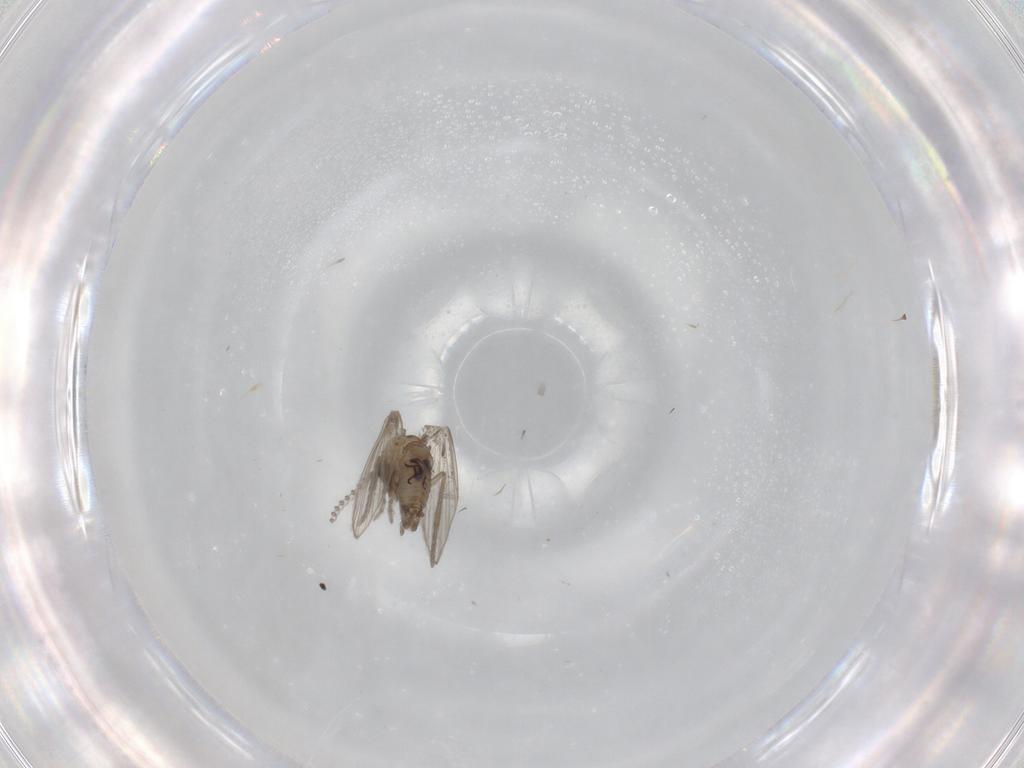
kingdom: Animalia
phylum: Arthropoda
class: Insecta
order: Diptera
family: Psychodidae
